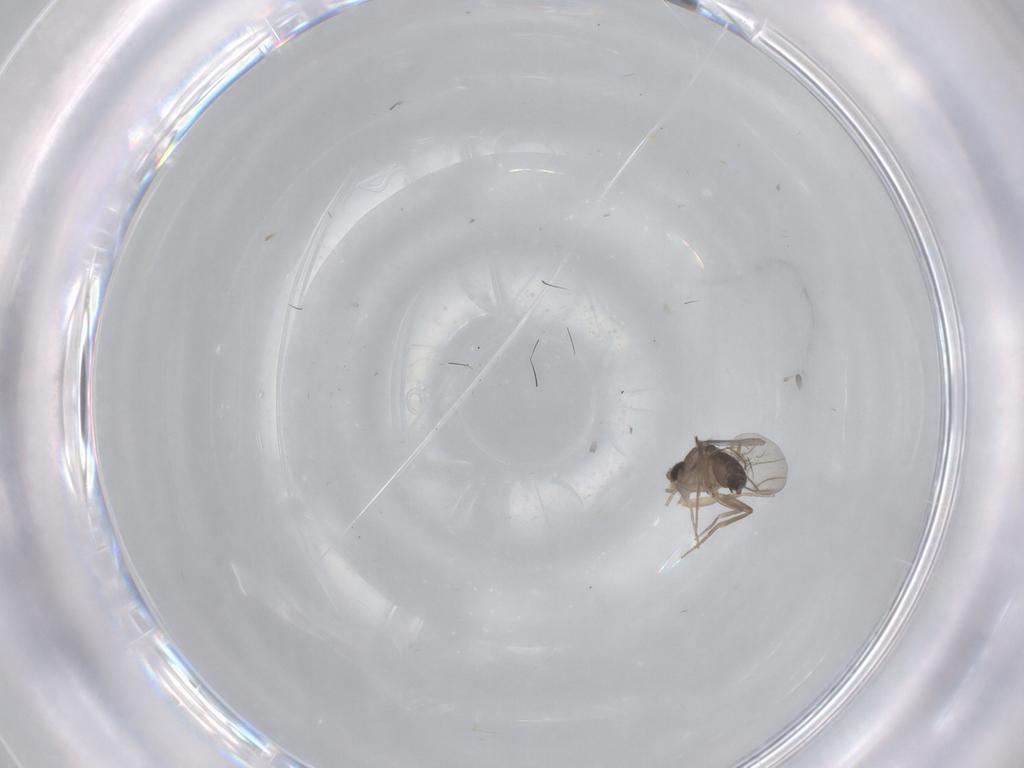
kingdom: Animalia
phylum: Arthropoda
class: Insecta
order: Diptera
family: Phoridae
